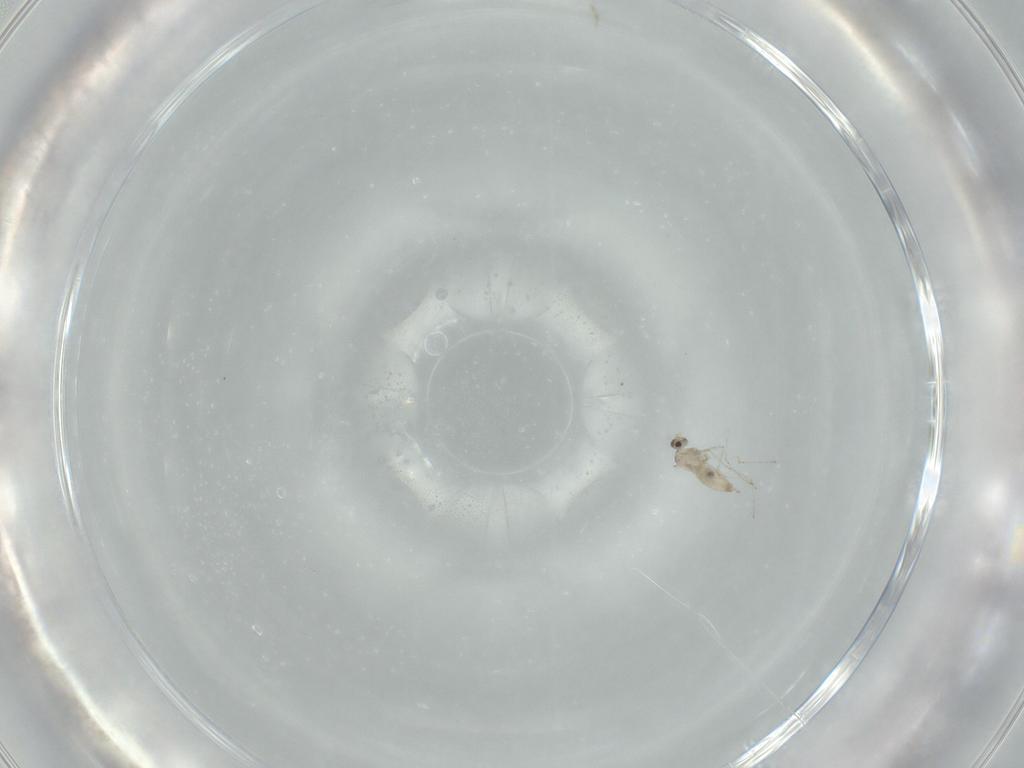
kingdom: Animalia
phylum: Arthropoda
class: Insecta
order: Diptera
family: Cecidomyiidae
